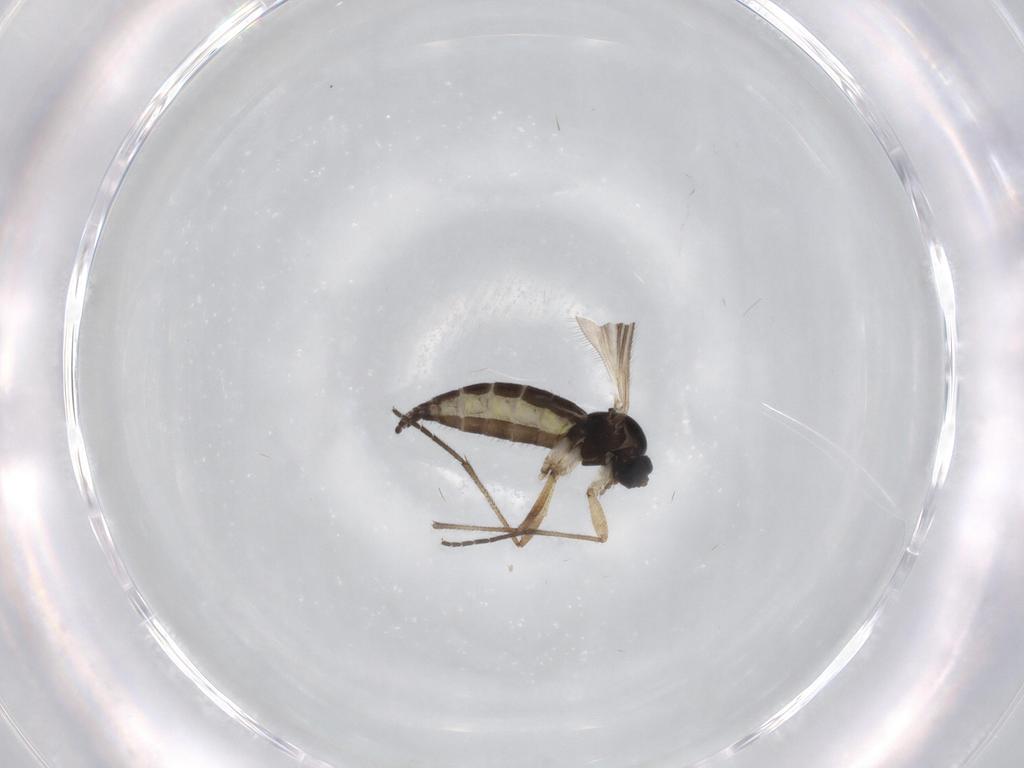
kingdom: Animalia
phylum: Arthropoda
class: Insecta
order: Diptera
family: Sciaridae
